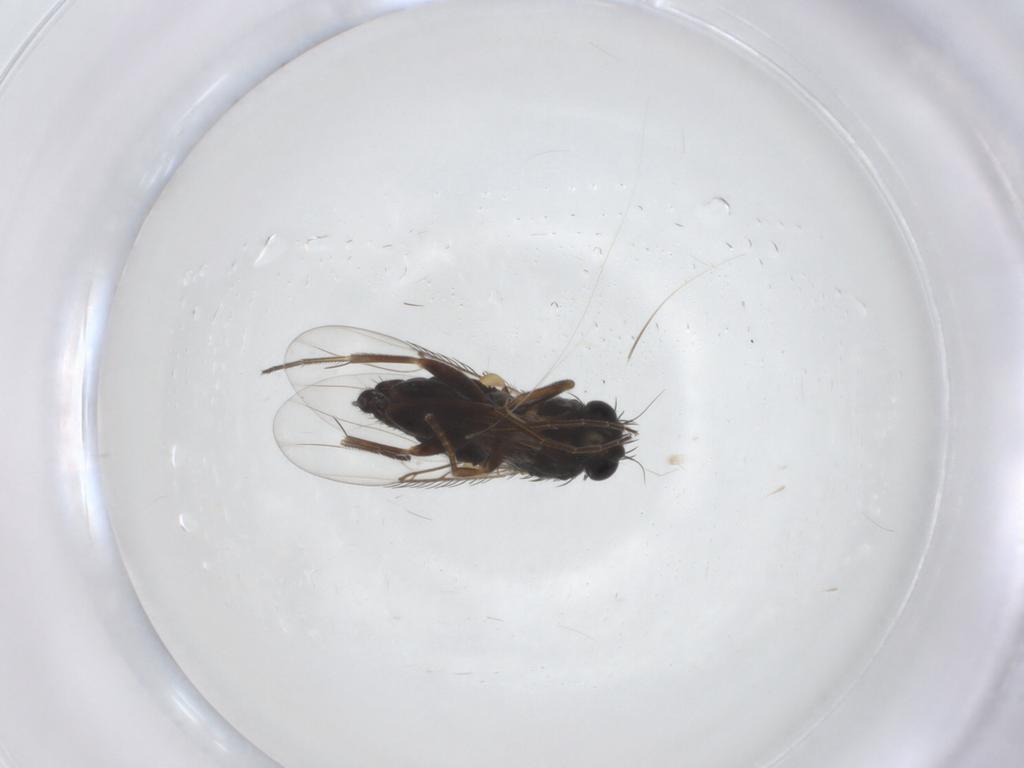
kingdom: Animalia
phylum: Arthropoda
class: Insecta
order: Diptera
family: Phoridae
